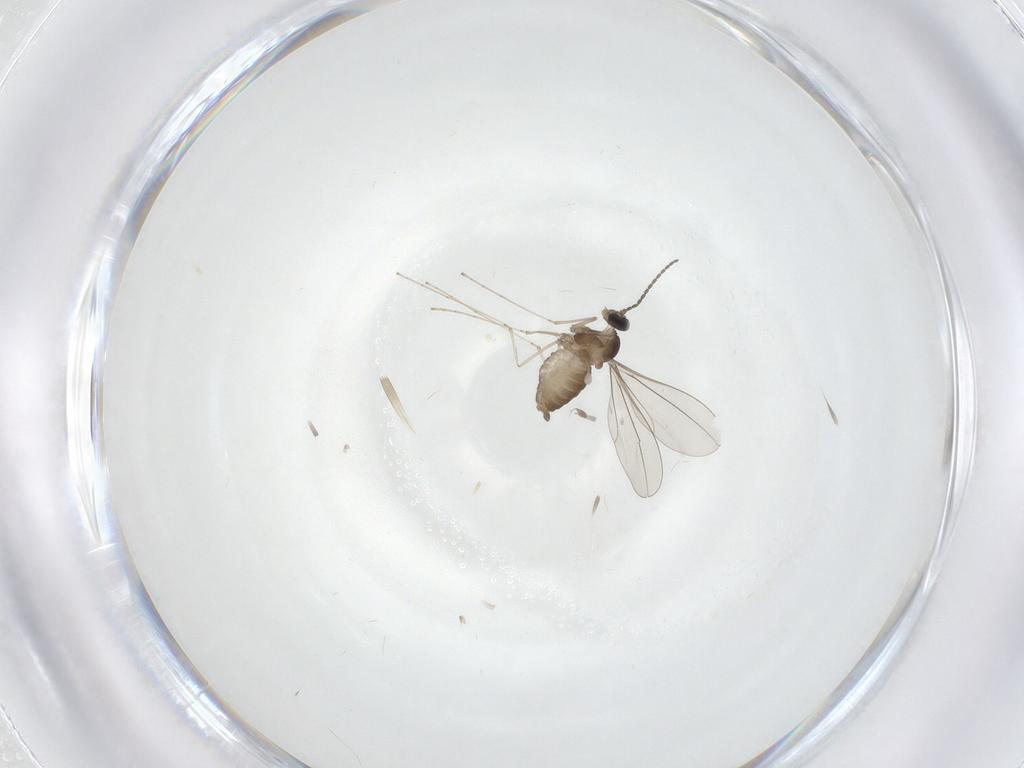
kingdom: Animalia
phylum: Arthropoda
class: Insecta
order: Diptera
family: Cecidomyiidae
